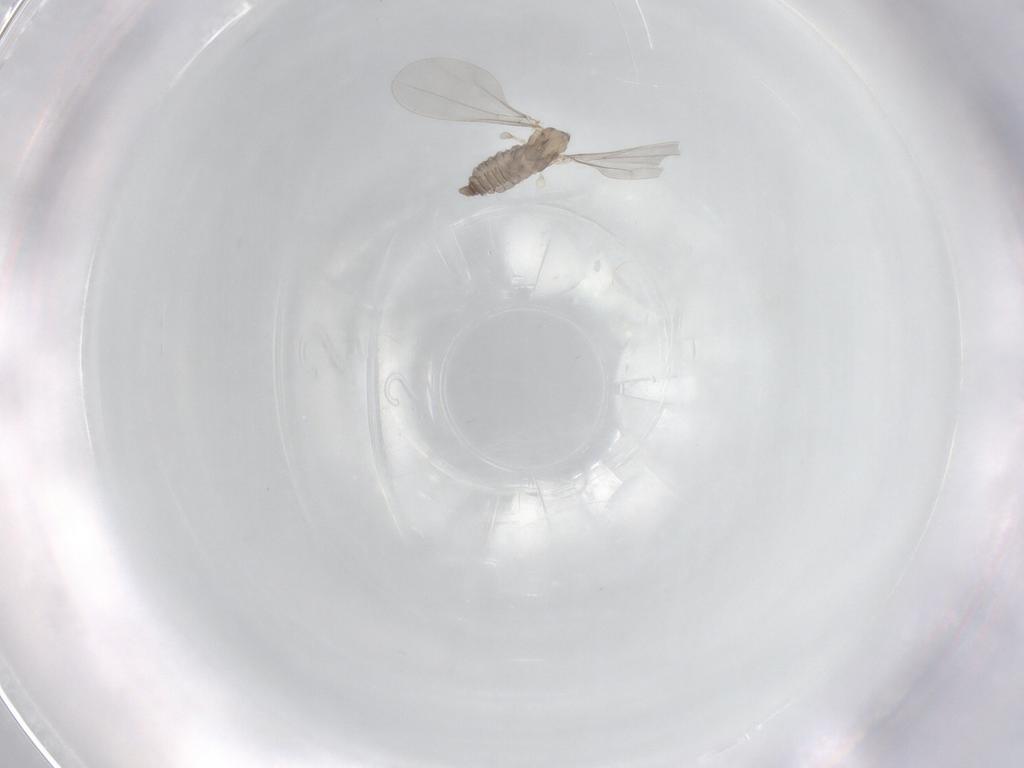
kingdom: Animalia
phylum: Arthropoda
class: Insecta
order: Diptera
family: Cecidomyiidae
